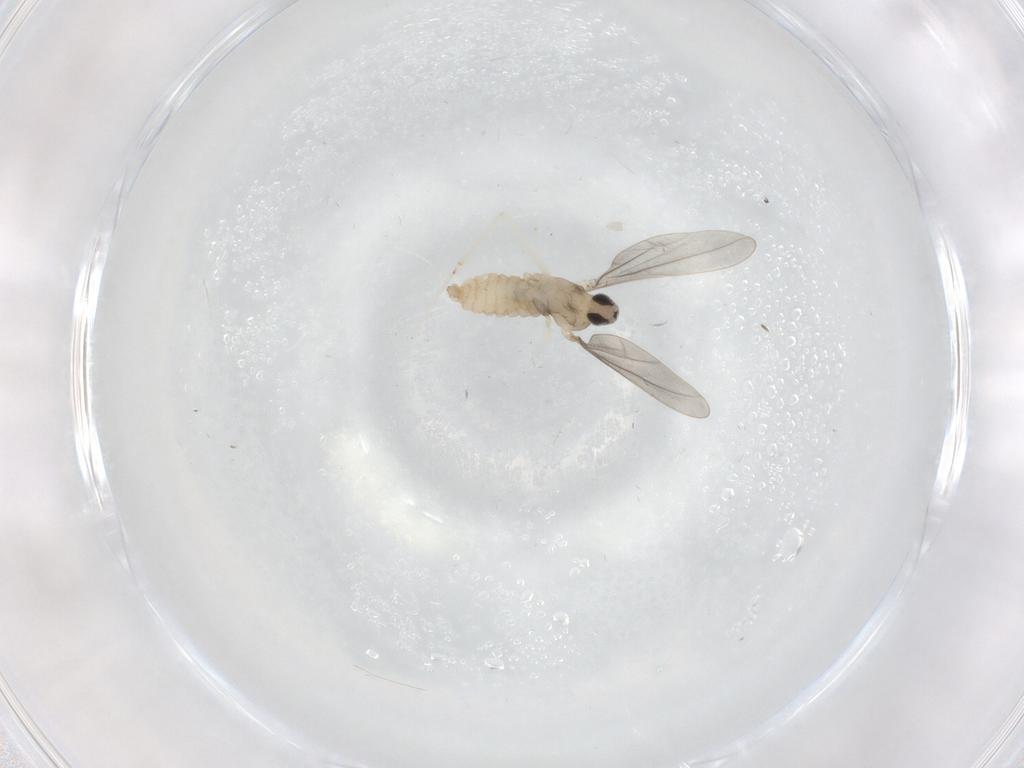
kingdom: Animalia
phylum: Arthropoda
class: Insecta
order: Diptera
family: Cecidomyiidae
